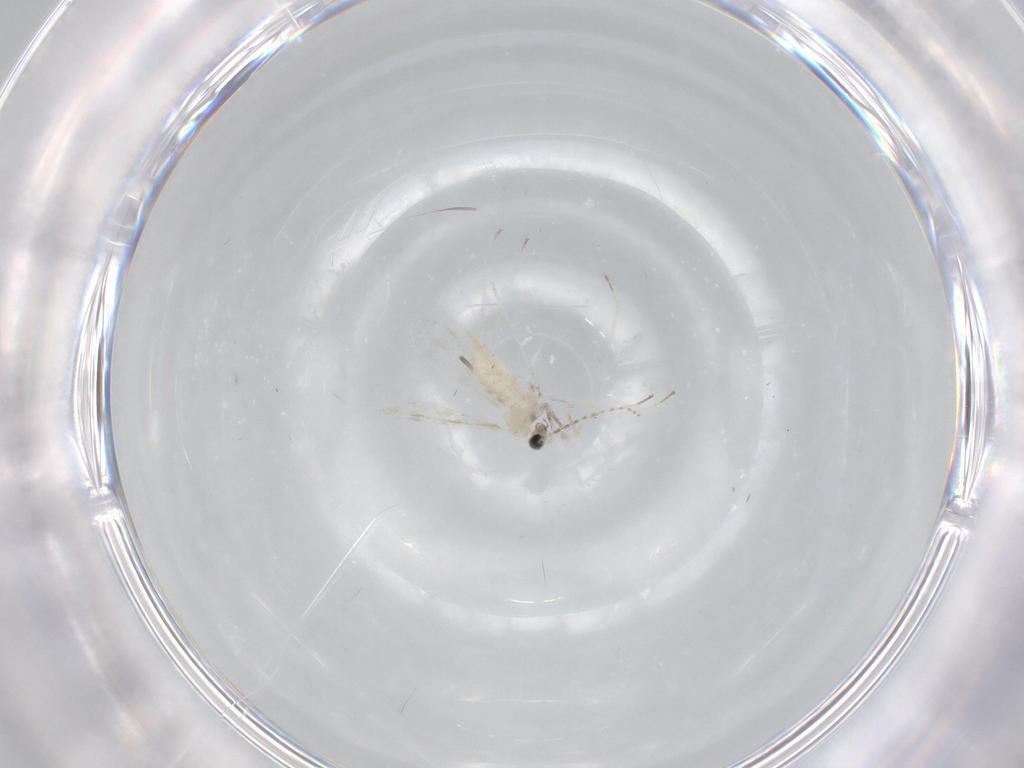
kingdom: Animalia
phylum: Arthropoda
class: Insecta
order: Diptera
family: Cecidomyiidae
